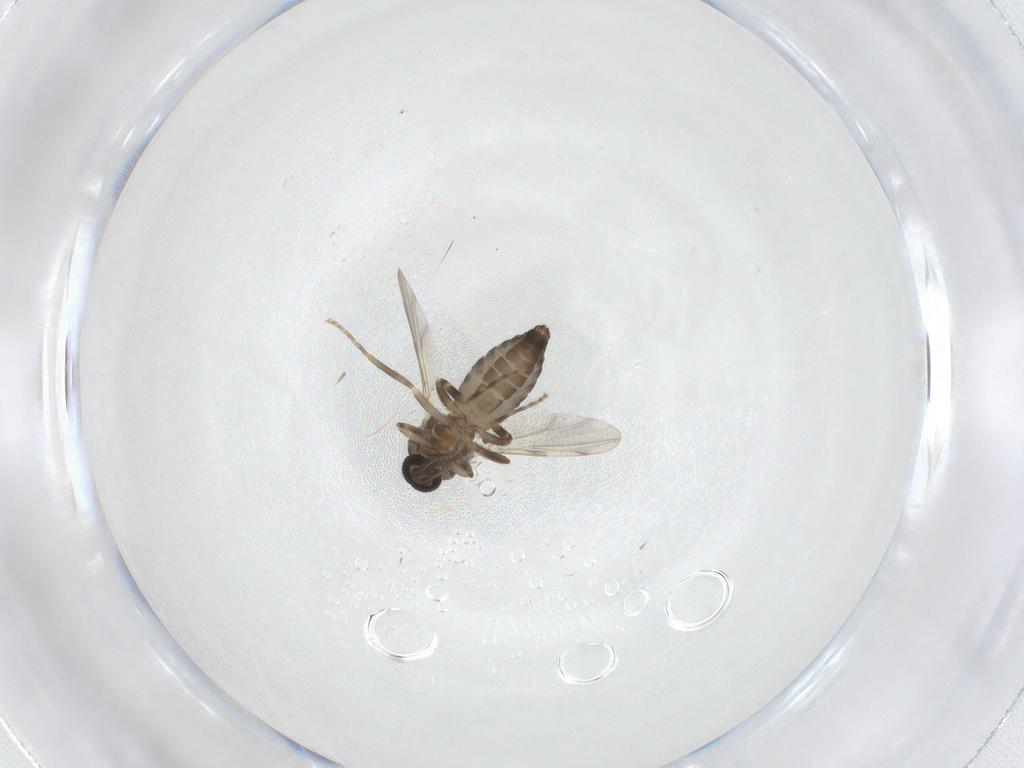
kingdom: Animalia
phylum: Arthropoda
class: Insecta
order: Diptera
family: Ceratopogonidae
